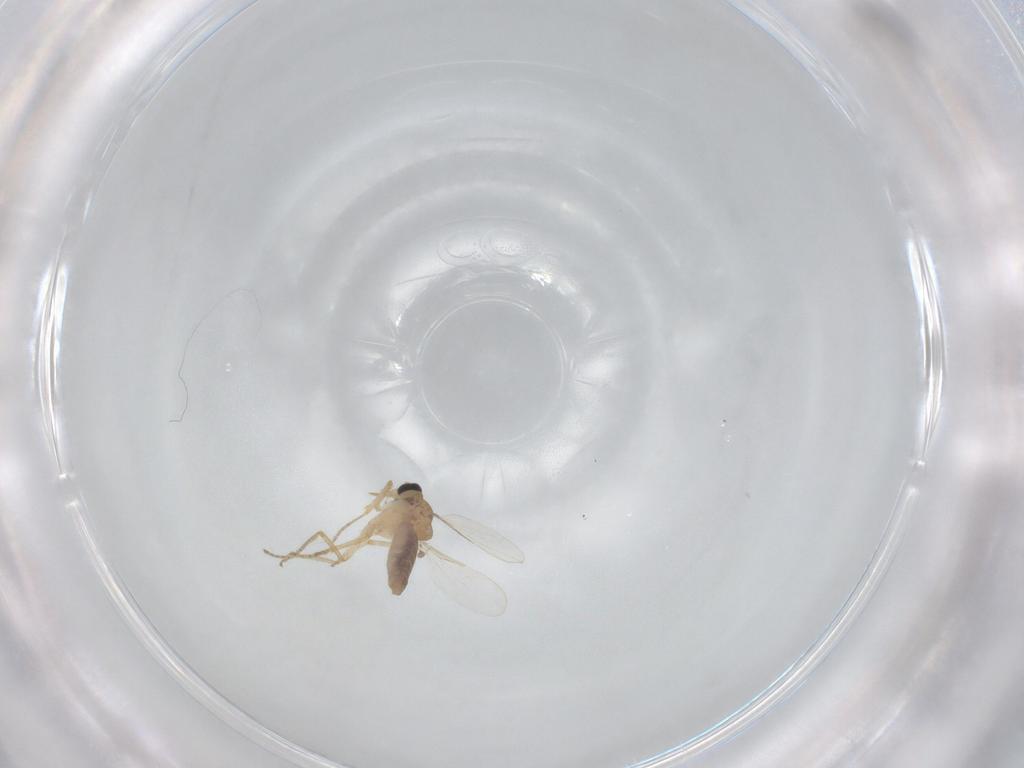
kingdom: Animalia
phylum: Arthropoda
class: Insecta
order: Diptera
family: Ceratopogonidae
